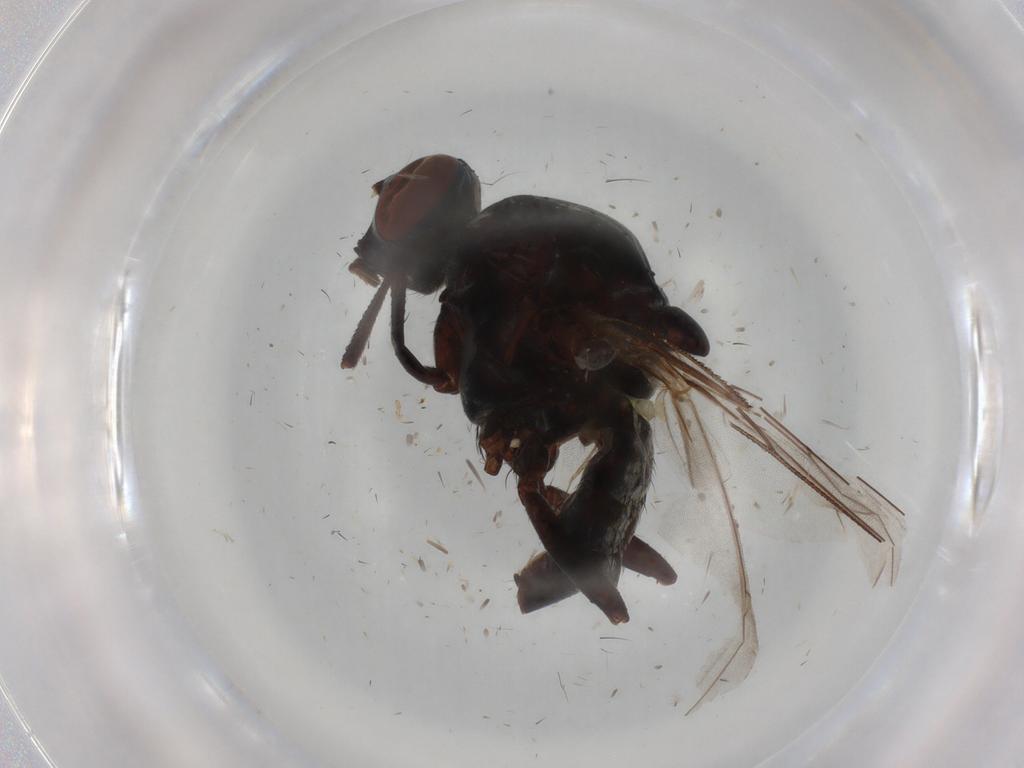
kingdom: Animalia
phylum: Arthropoda
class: Insecta
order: Diptera
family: Anthomyiidae
